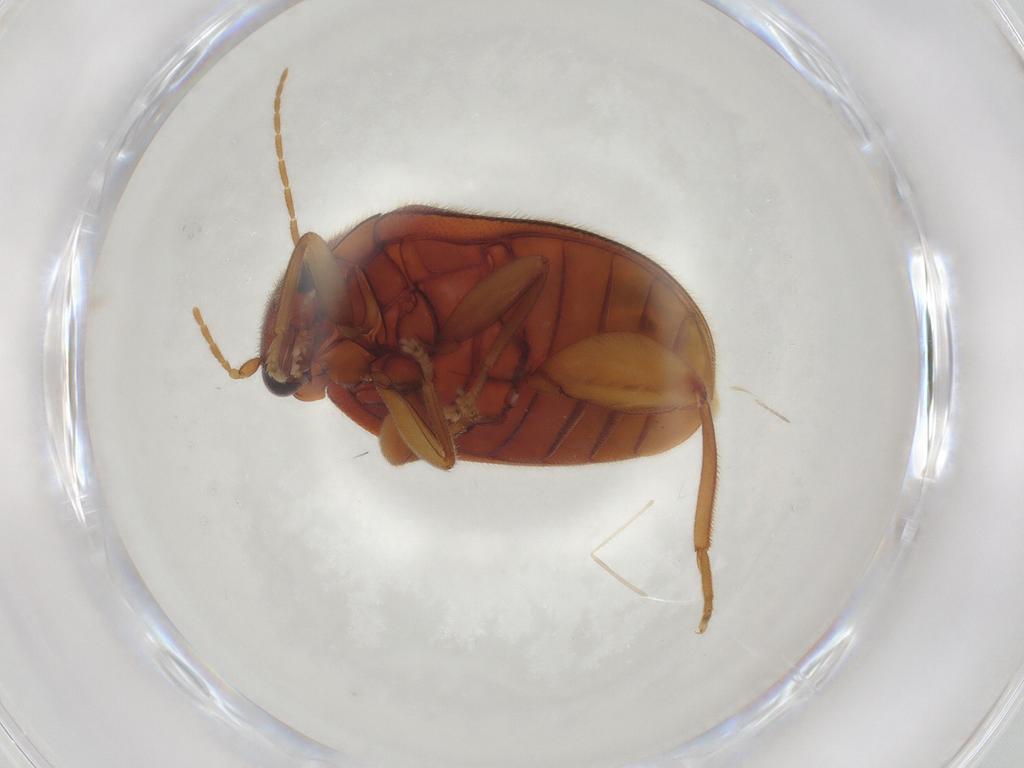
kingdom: Animalia
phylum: Arthropoda
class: Insecta
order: Coleoptera
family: Scirtidae
